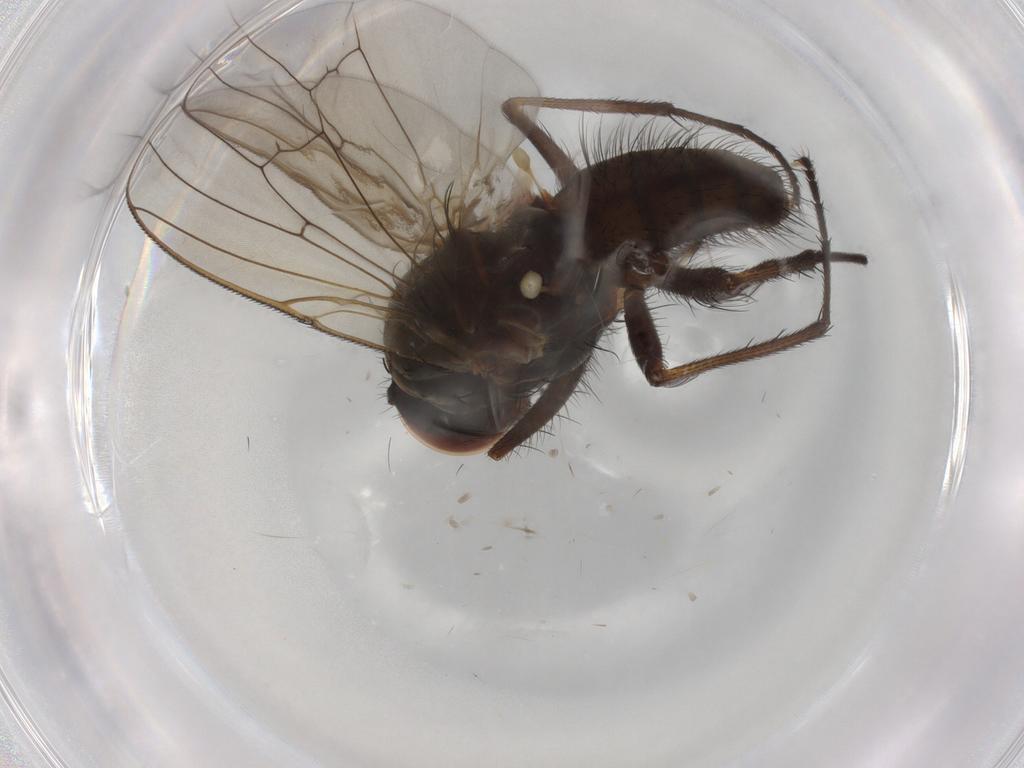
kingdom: Animalia
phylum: Arthropoda
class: Insecta
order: Diptera
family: Anthomyiidae
